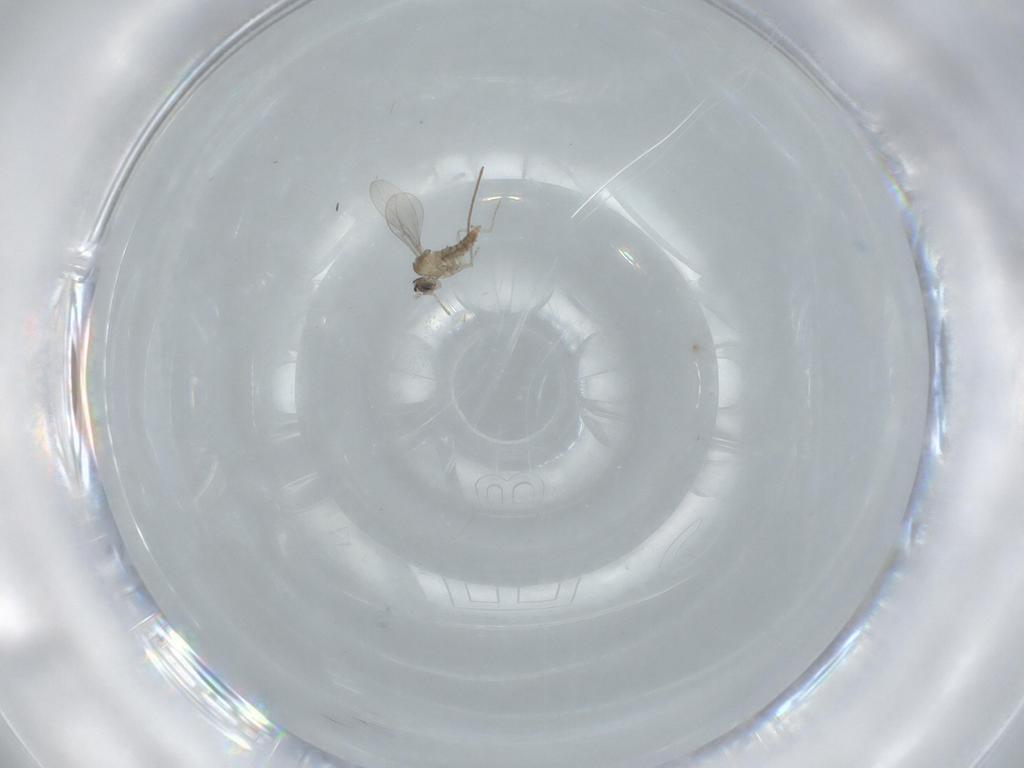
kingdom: Animalia
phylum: Arthropoda
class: Insecta
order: Diptera
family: Cecidomyiidae
